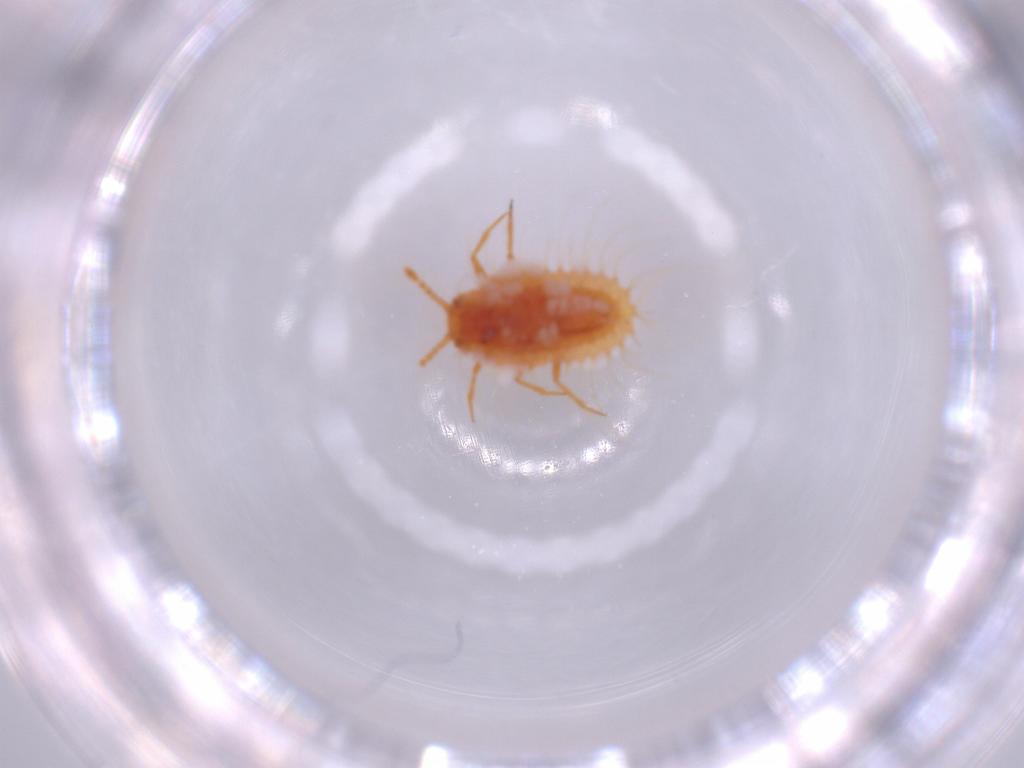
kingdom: Animalia
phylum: Arthropoda
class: Insecta
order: Hemiptera
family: Coccoidea_incertae_sedis
